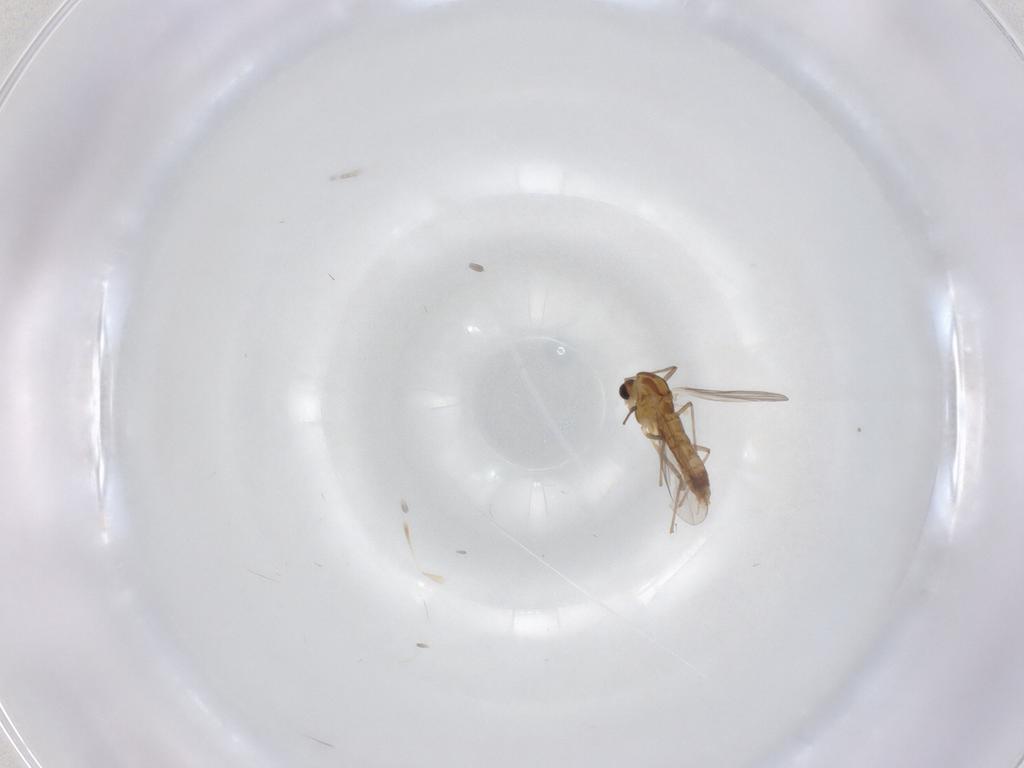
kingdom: Animalia
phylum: Arthropoda
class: Insecta
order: Diptera
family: Chironomidae
